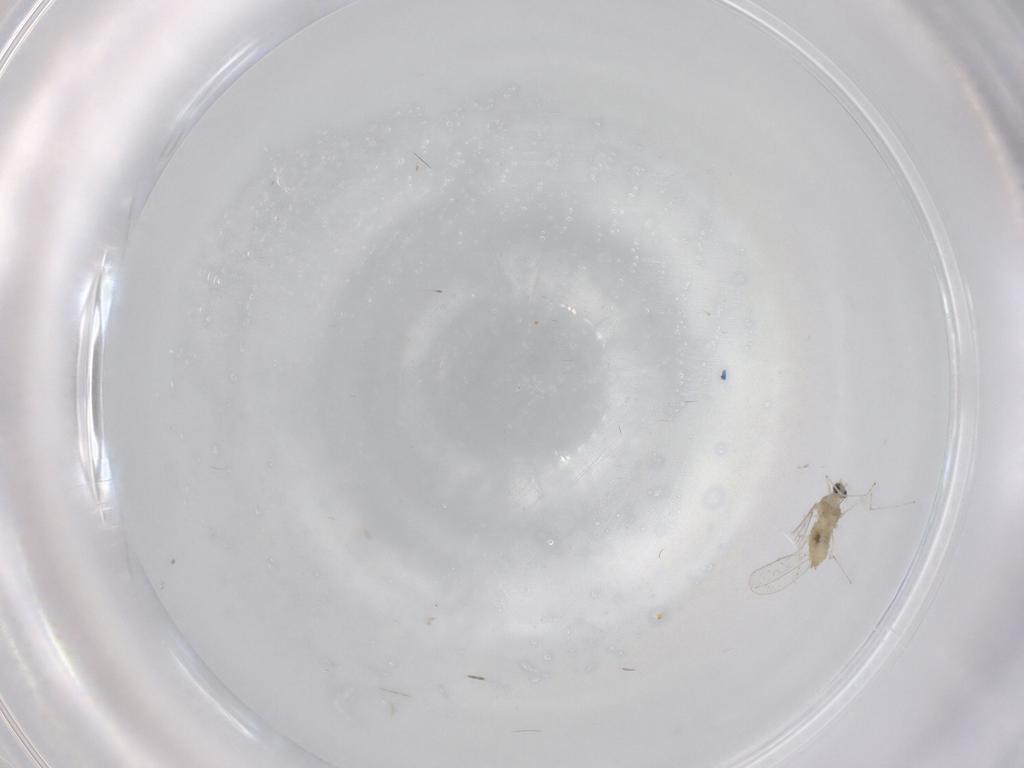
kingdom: Animalia
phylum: Arthropoda
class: Insecta
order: Diptera
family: Cecidomyiidae
